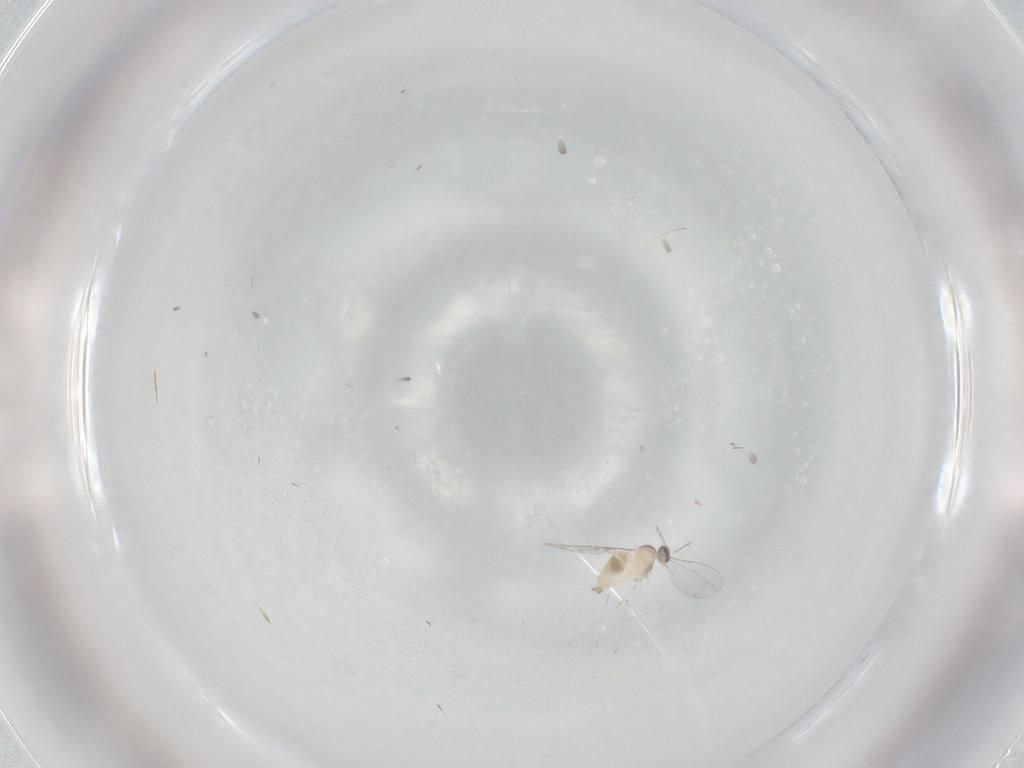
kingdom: Animalia
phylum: Arthropoda
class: Insecta
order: Diptera
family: Cecidomyiidae
